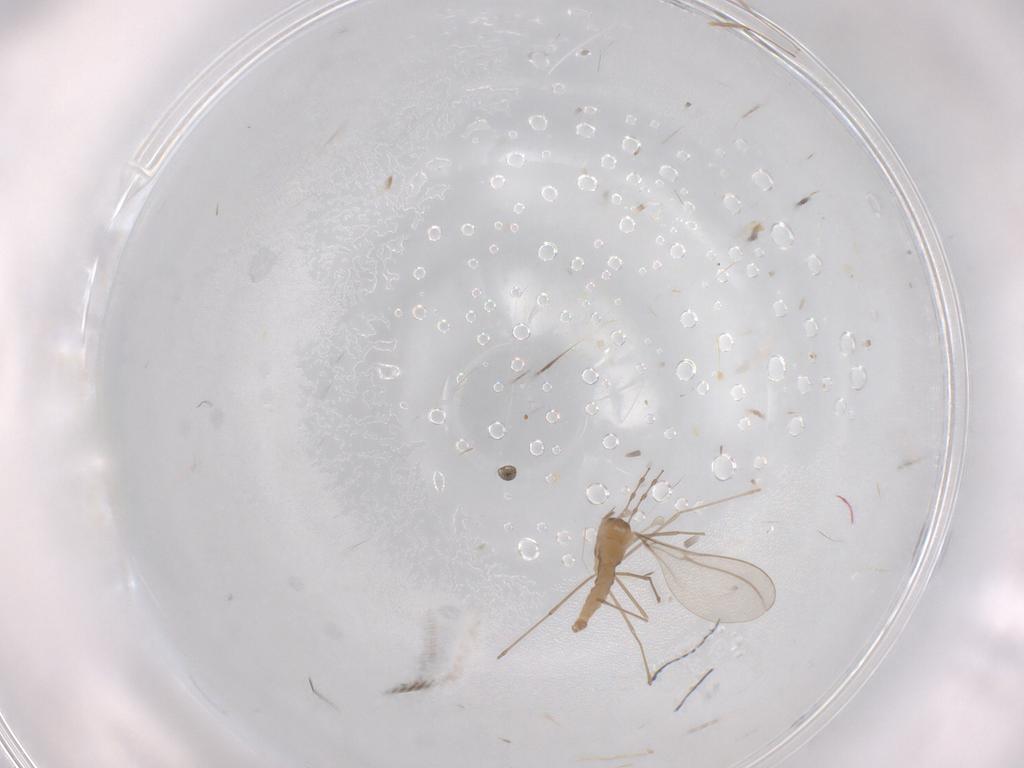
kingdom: Animalia
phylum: Arthropoda
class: Insecta
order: Diptera
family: Cecidomyiidae
